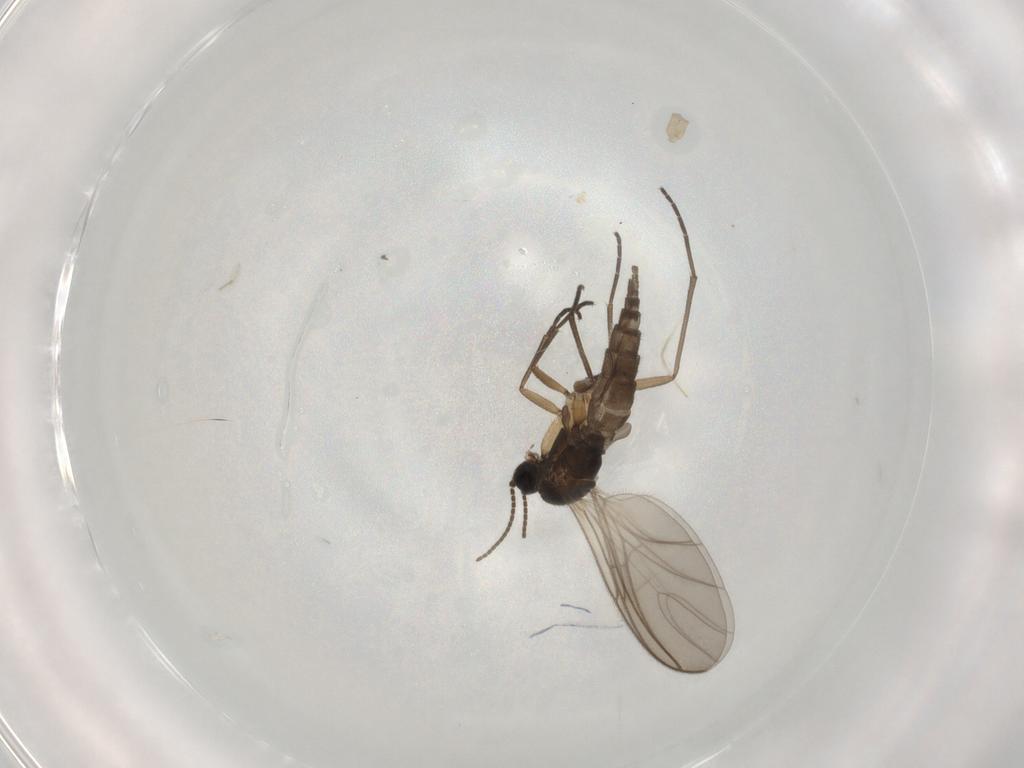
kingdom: Animalia
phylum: Arthropoda
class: Insecta
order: Diptera
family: Sciaridae
